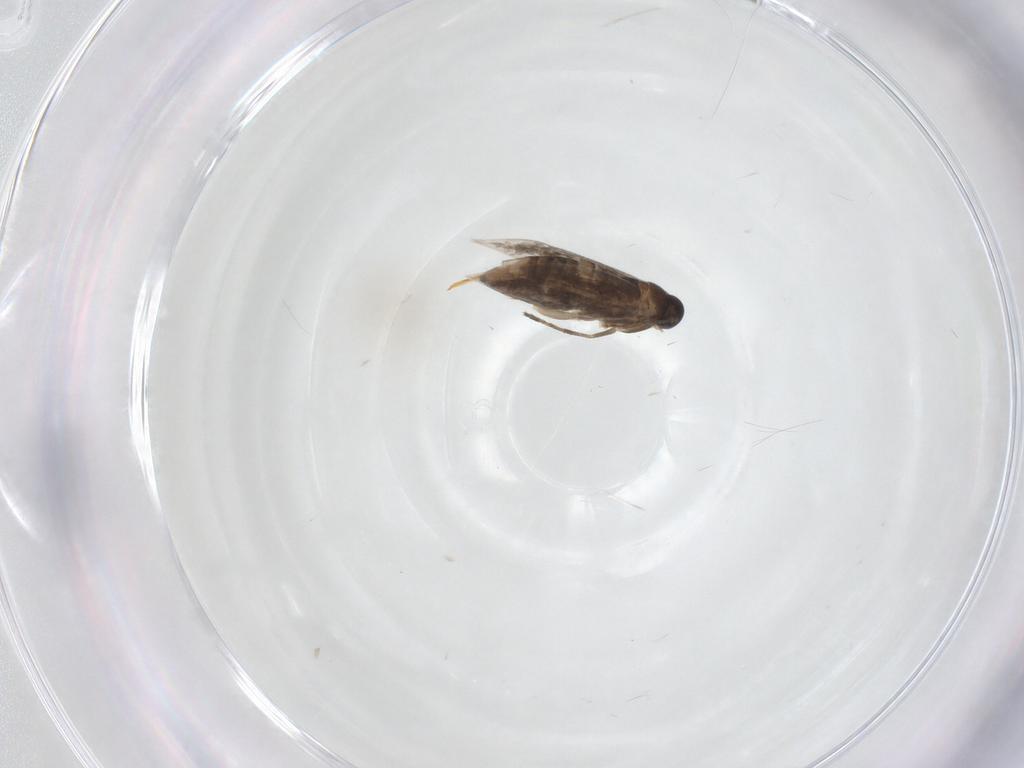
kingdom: Animalia
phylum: Arthropoda
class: Insecta
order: Lepidoptera
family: Heliozelidae
